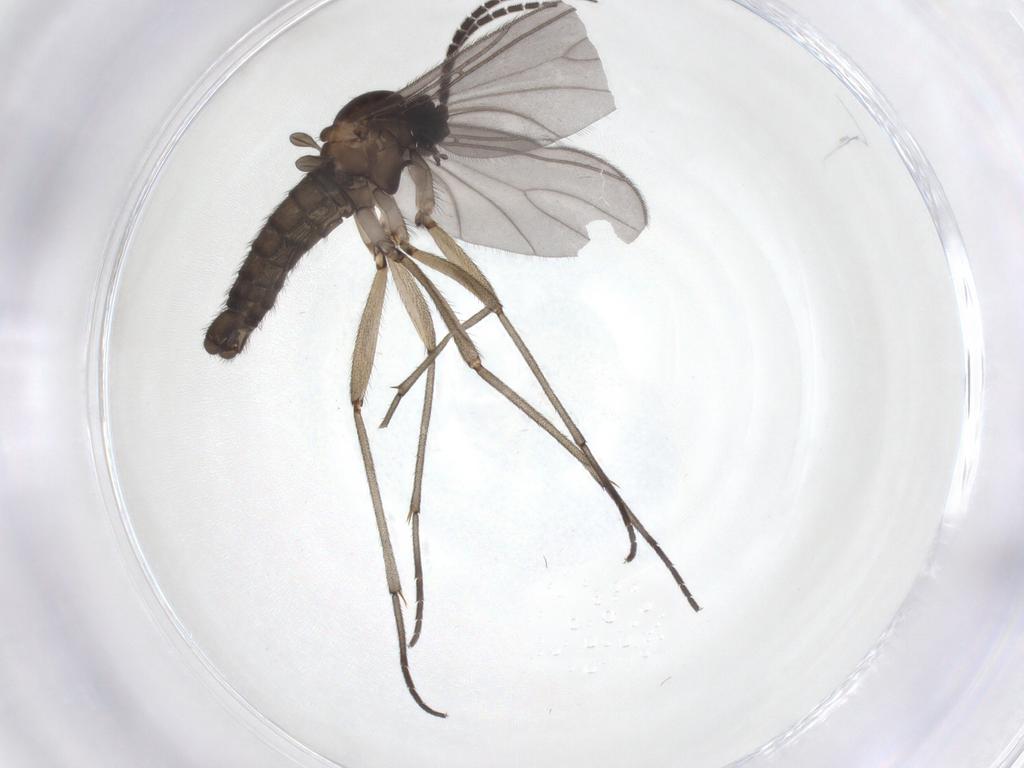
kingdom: Animalia
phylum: Arthropoda
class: Insecta
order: Diptera
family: Sciaridae
